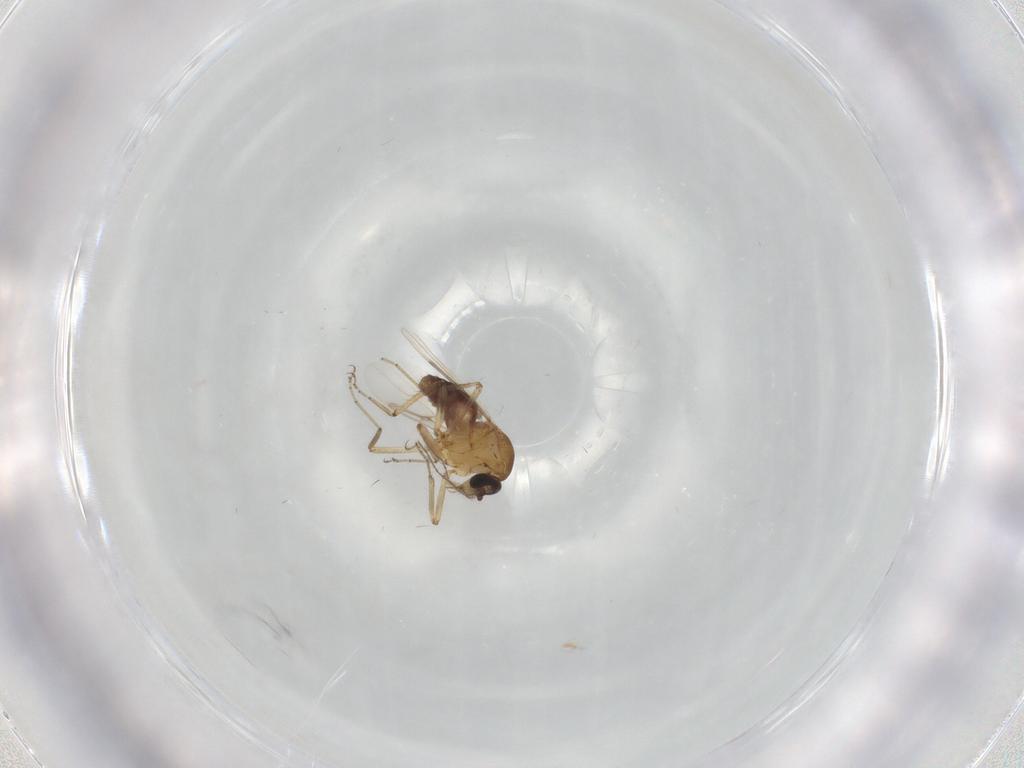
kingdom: Animalia
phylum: Arthropoda
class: Insecta
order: Diptera
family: Ceratopogonidae
